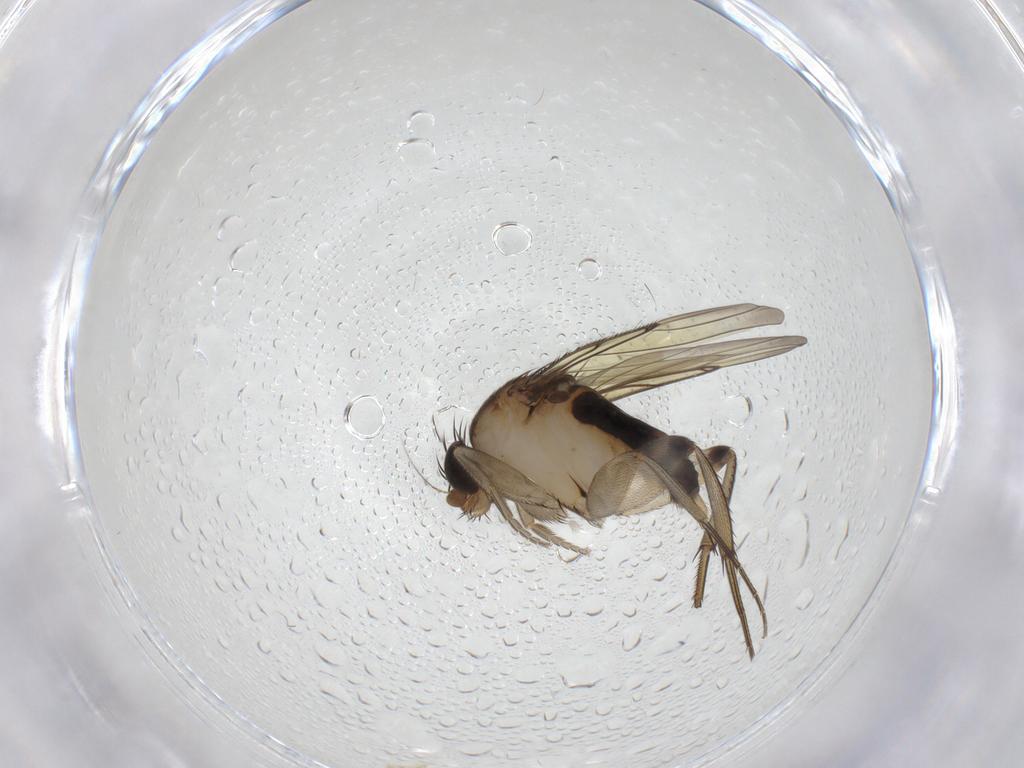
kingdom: Animalia
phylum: Arthropoda
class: Insecta
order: Diptera
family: Phoridae
